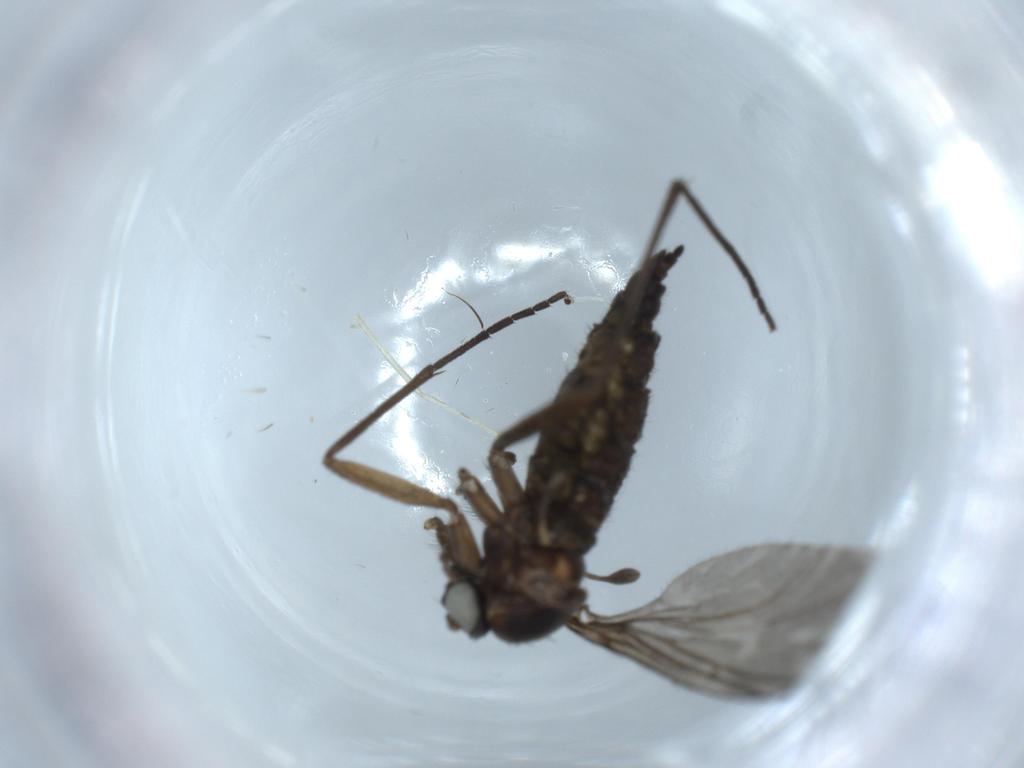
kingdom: Animalia
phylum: Arthropoda
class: Insecta
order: Diptera
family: Sciaridae
